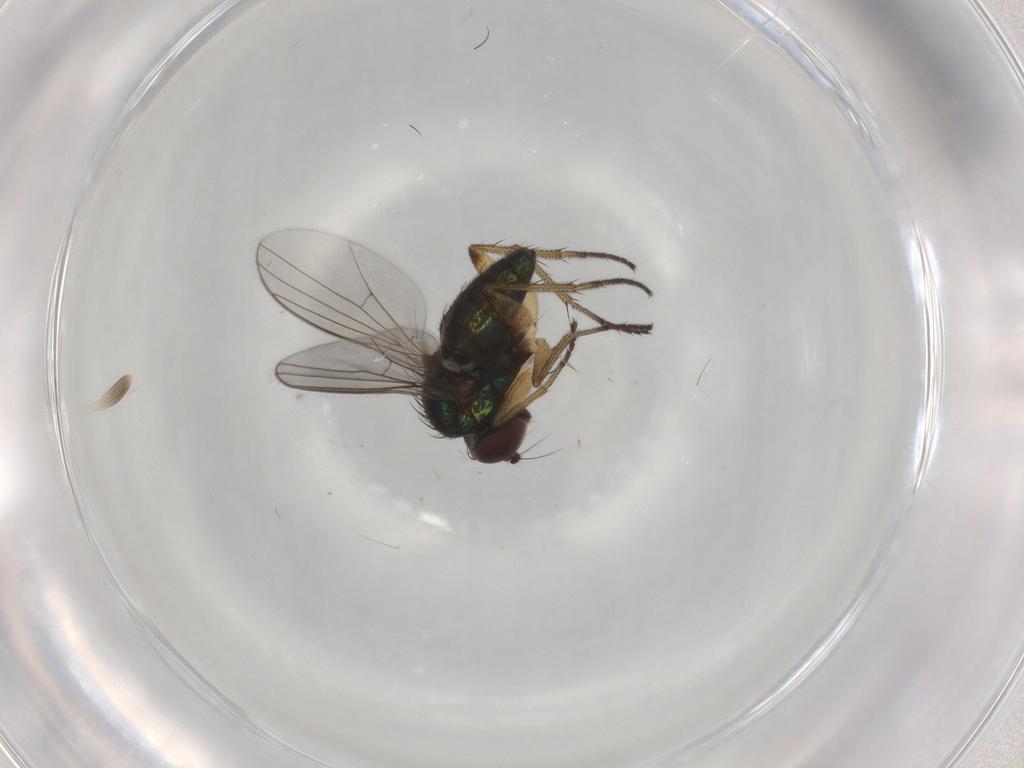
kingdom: Animalia
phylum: Arthropoda
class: Insecta
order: Diptera
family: Dolichopodidae
